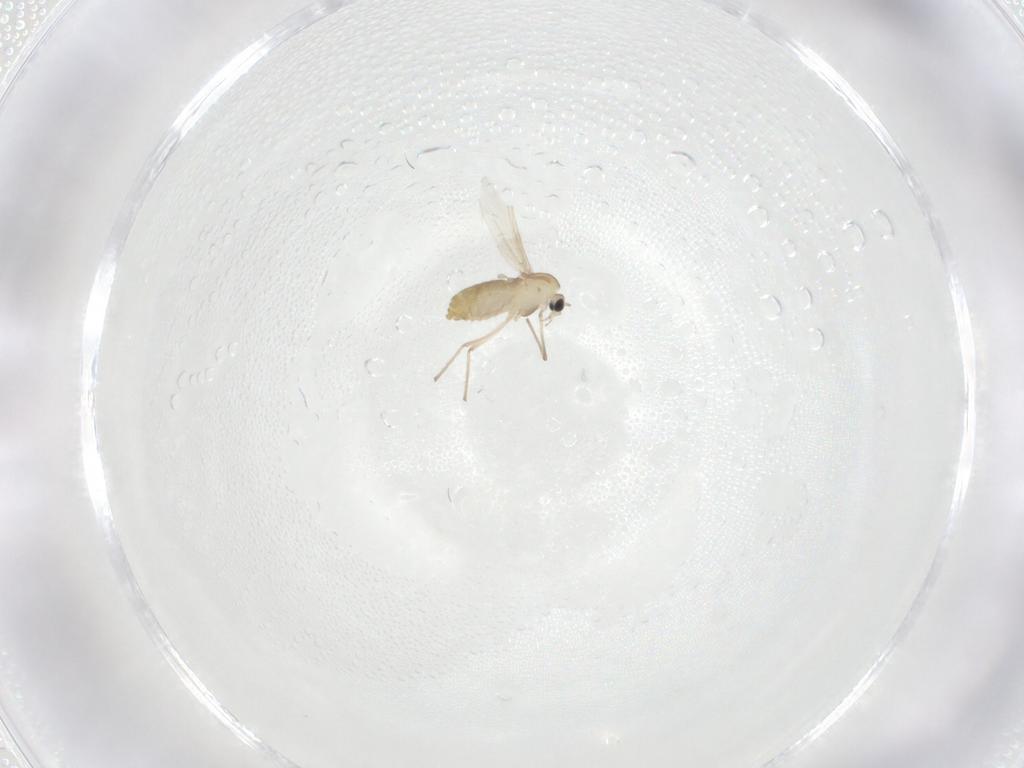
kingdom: Animalia
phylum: Arthropoda
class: Insecta
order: Diptera
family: Chironomidae
